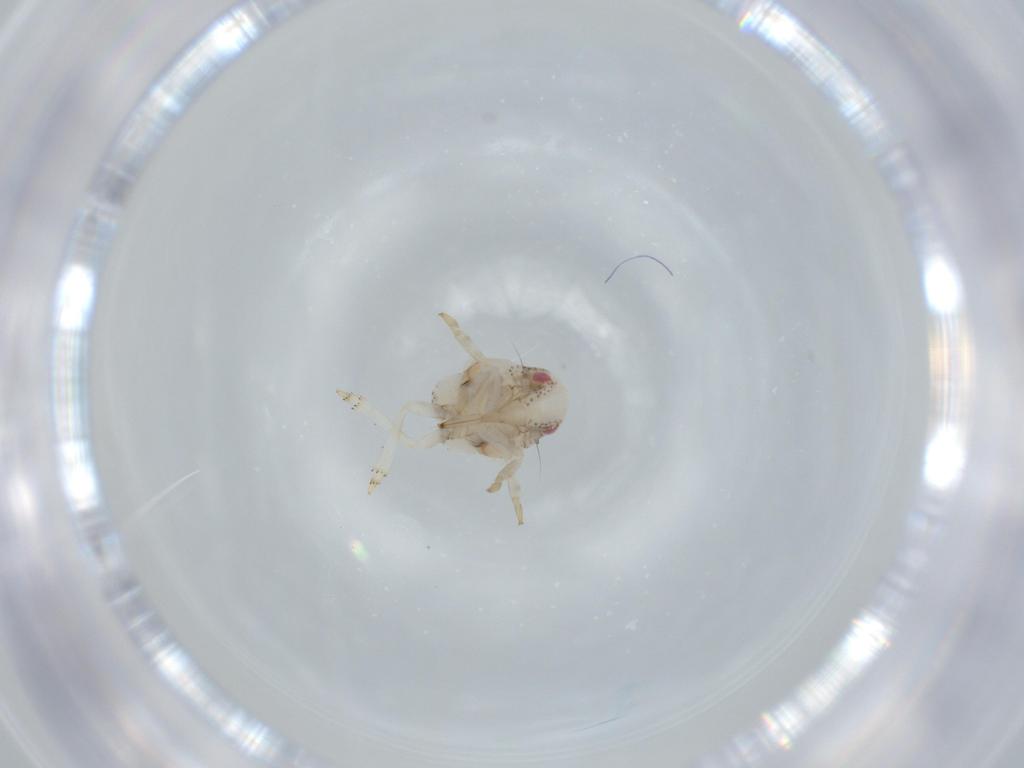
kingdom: Animalia
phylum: Arthropoda
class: Insecta
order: Hemiptera
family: Acanaloniidae
